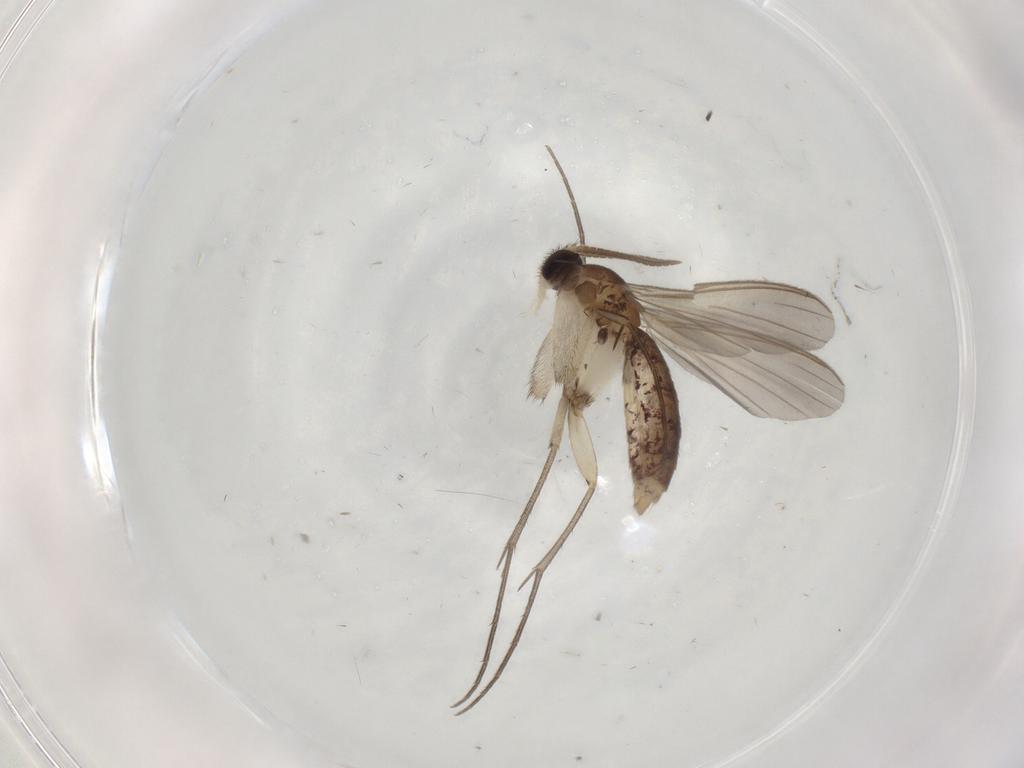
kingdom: Animalia
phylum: Arthropoda
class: Insecta
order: Diptera
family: Mycetophilidae
